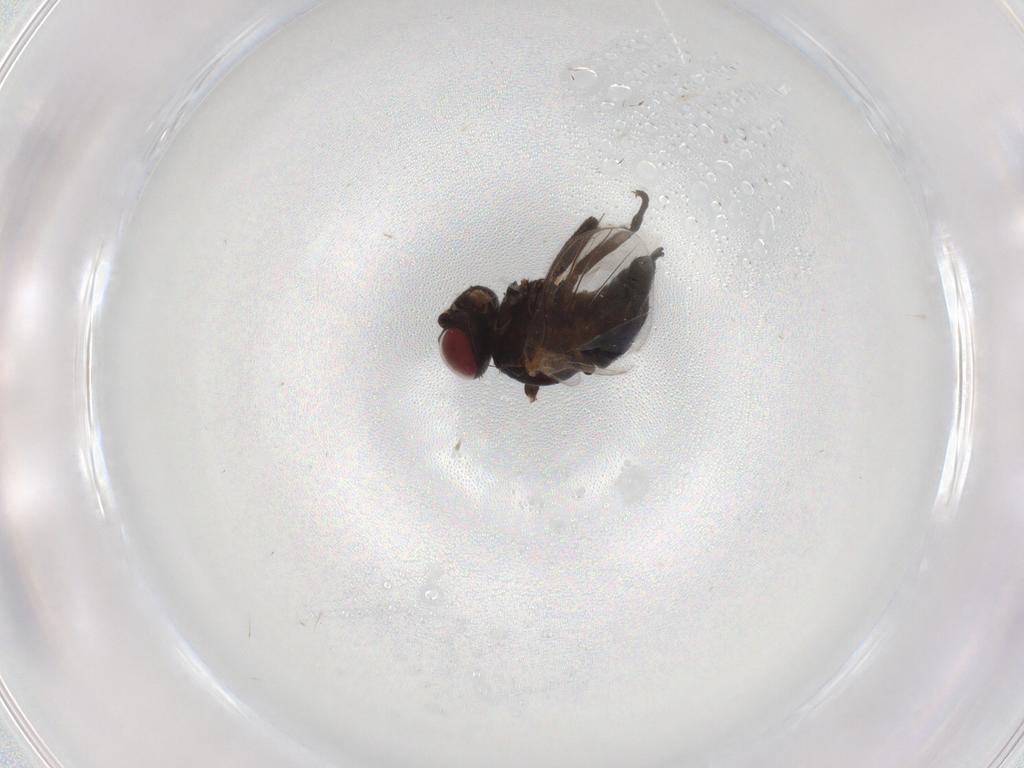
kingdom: Animalia
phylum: Arthropoda
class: Insecta
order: Diptera
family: Agromyzidae
